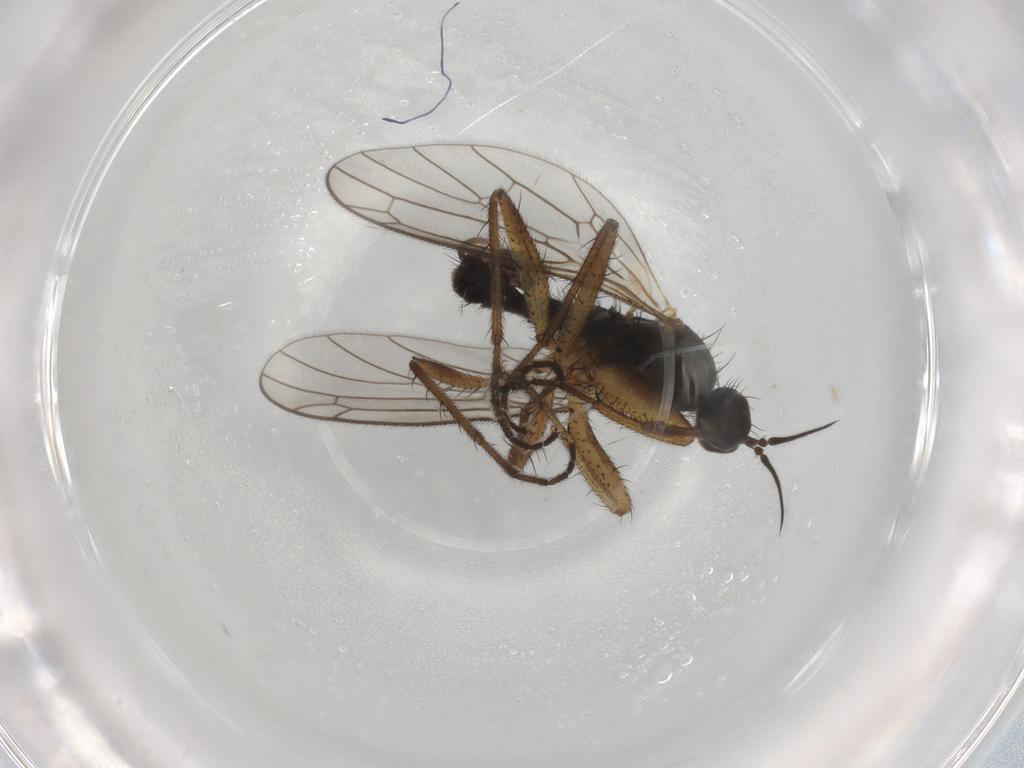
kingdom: Animalia
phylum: Arthropoda
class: Insecta
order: Diptera
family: Empididae
